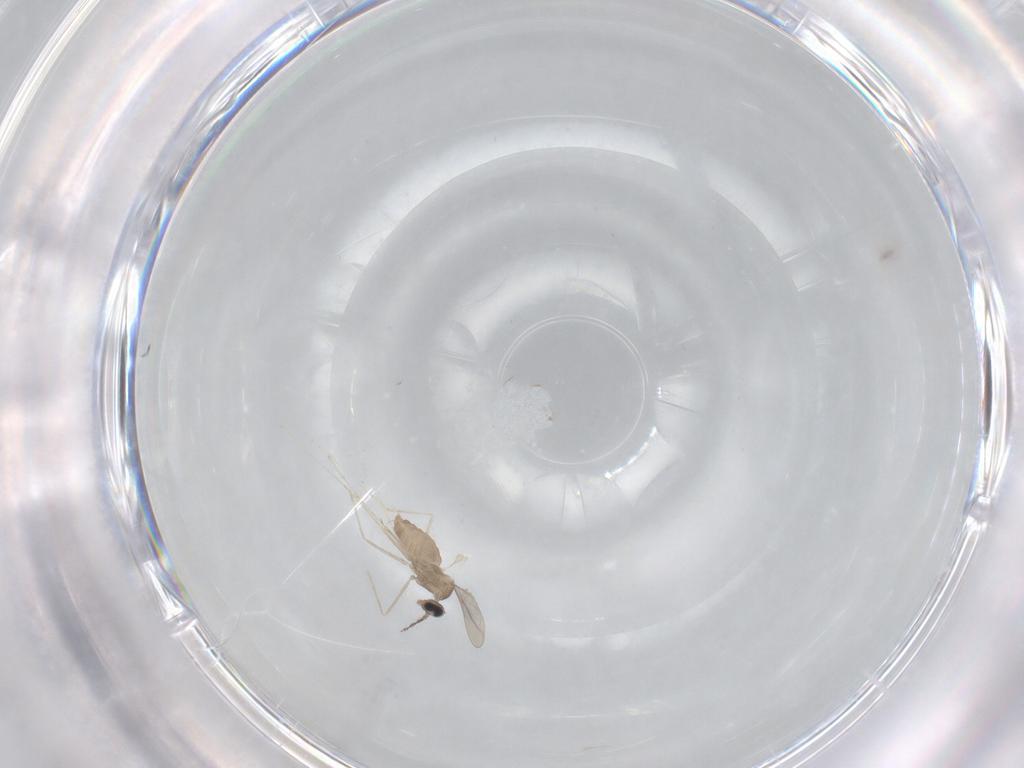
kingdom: Animalia
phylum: Arthropoda
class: Insecta
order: Diptera
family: Cecidomyiidae
